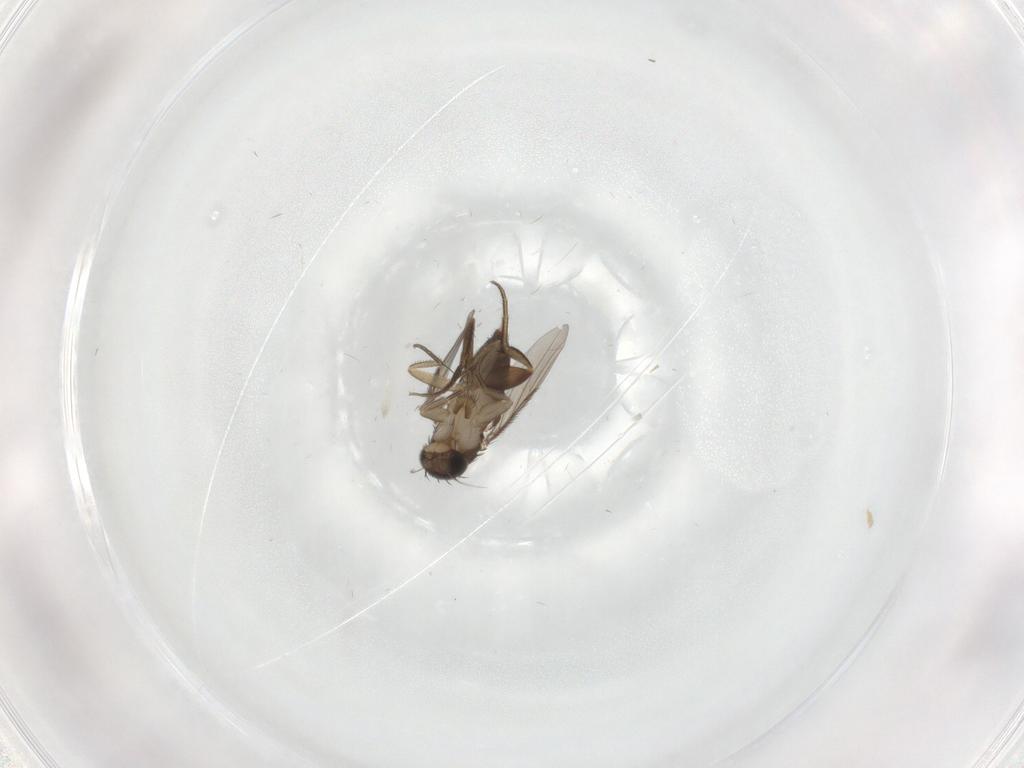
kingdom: Animalia
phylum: Arthropoda
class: Insecta
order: Diptera
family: Phoridae
